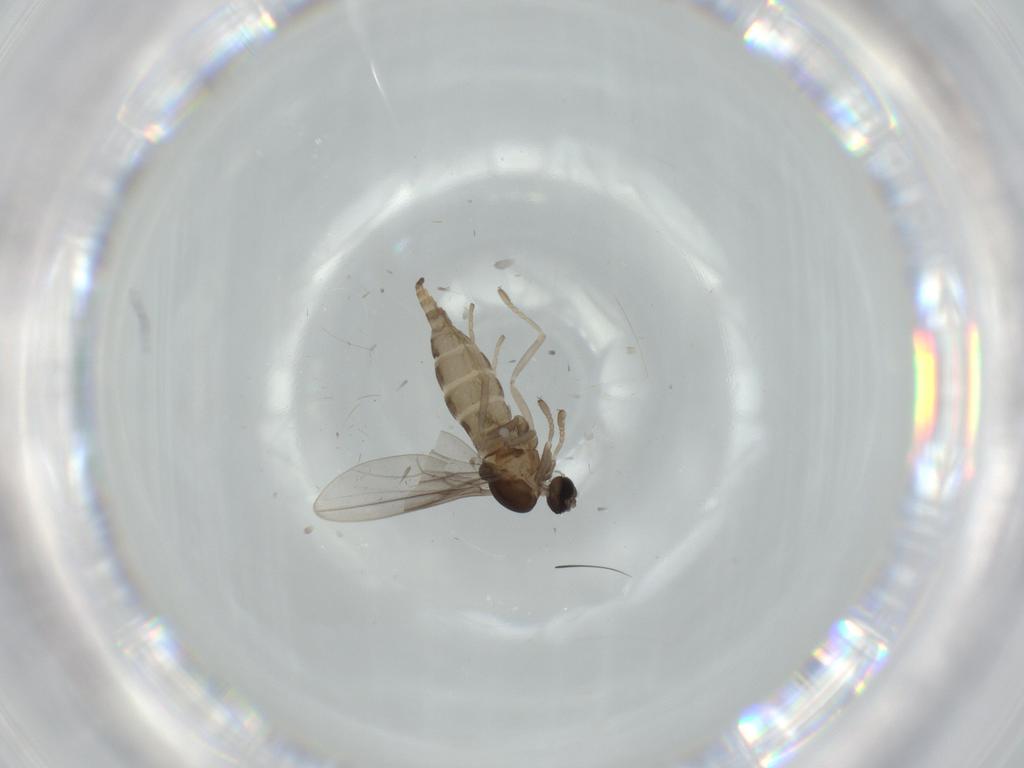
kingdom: Animalia
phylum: Arthropoda
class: Insecta
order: Diptera
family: Cecidomyiidae
